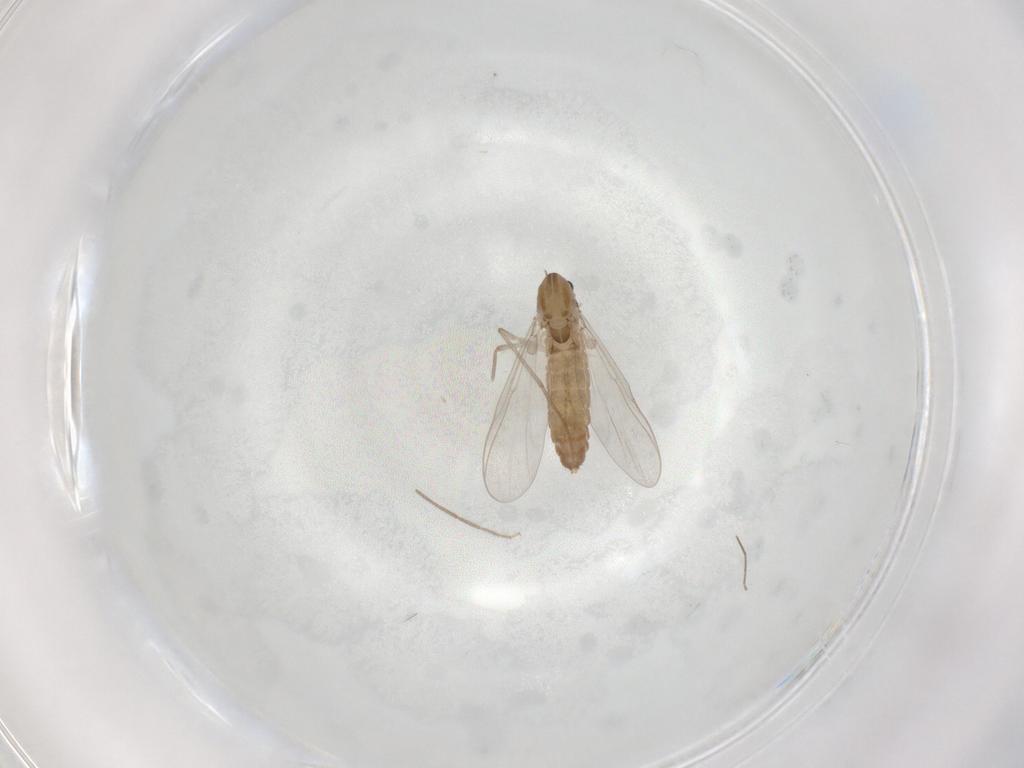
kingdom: Animalia
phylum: Arthropoda
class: Insecta
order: Diptera
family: Chironomidae
